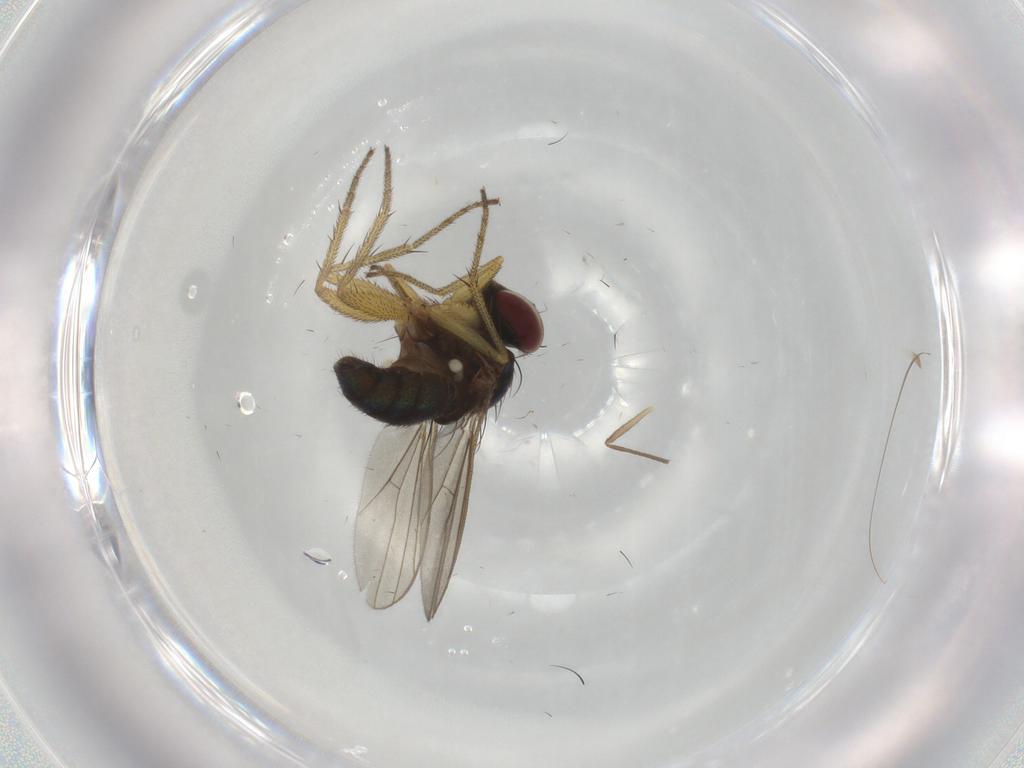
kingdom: Animalia
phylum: Arthropoda
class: Insecta
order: Diptera
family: Dolichopodidae
